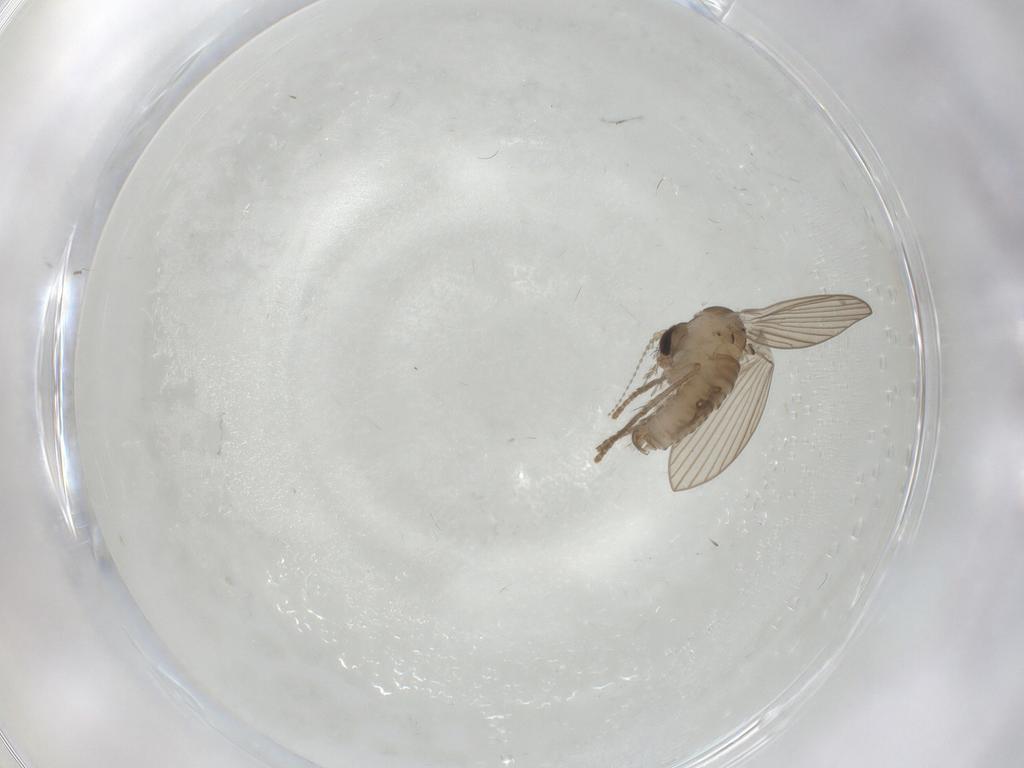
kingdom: Animalia
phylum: Arthropoda
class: Insecta
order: Diptera
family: Psychodidae
